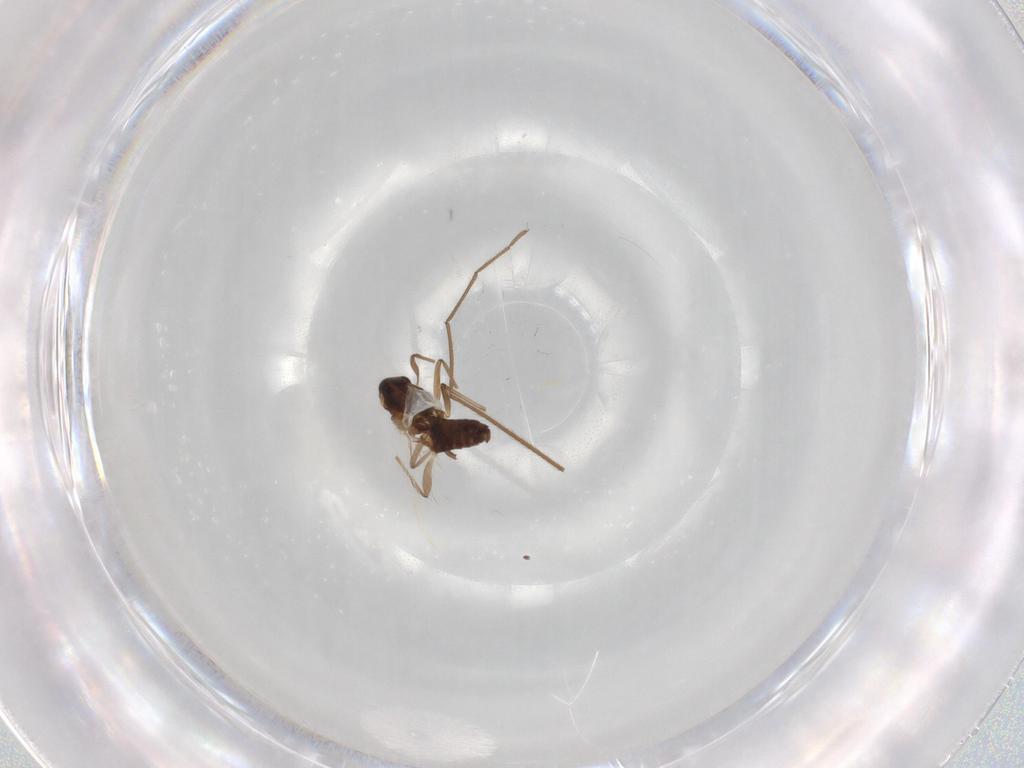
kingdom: Animalia
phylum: Arthropoda
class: Insecta
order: Diptera
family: Chironomidae
